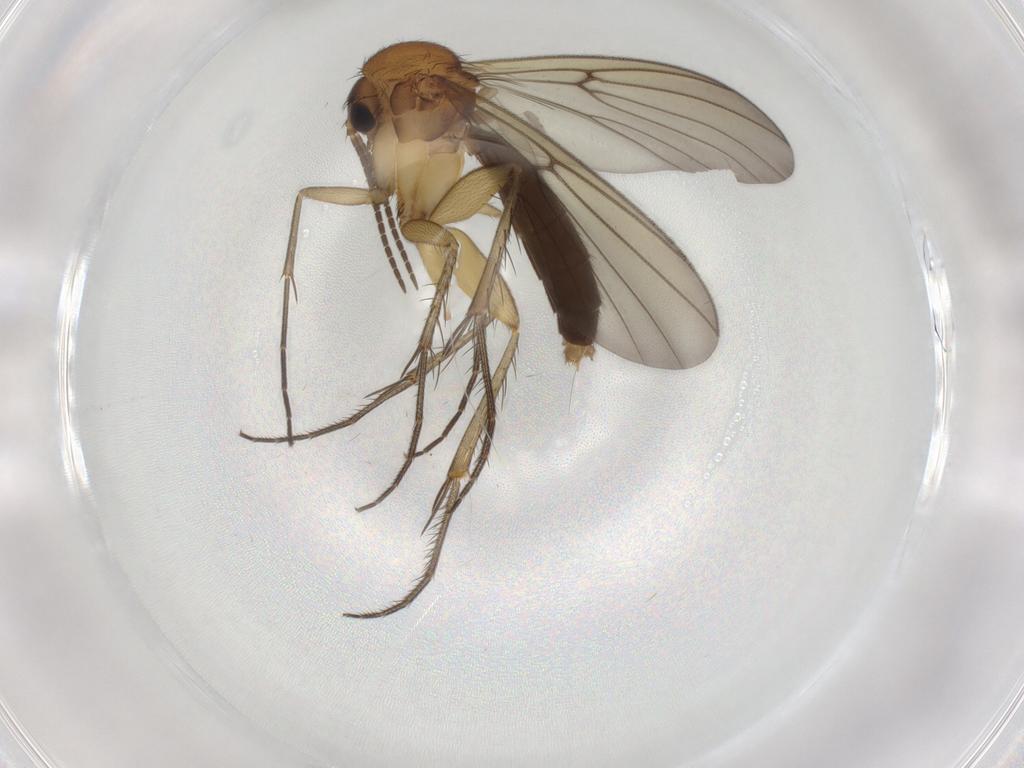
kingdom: Animalia
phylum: Arthropoda
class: Insecta
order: Diptera
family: Mycetophilidae
